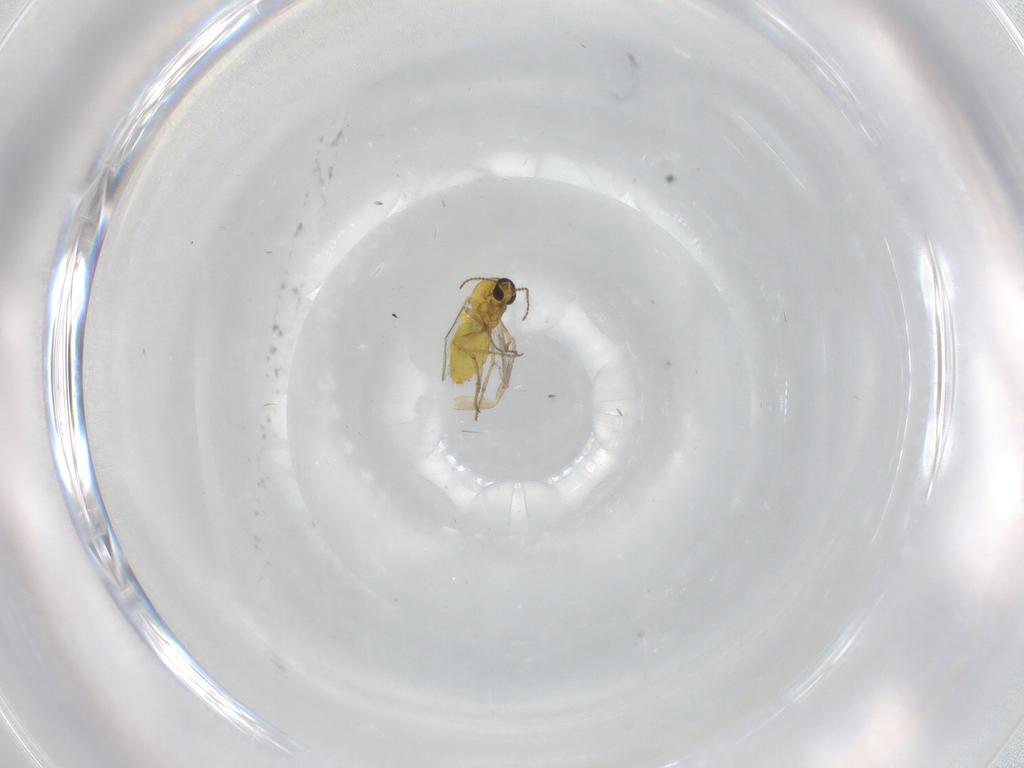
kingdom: Animalia
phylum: Arthropoda
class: Insecta
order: Diptera
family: Phoridae
